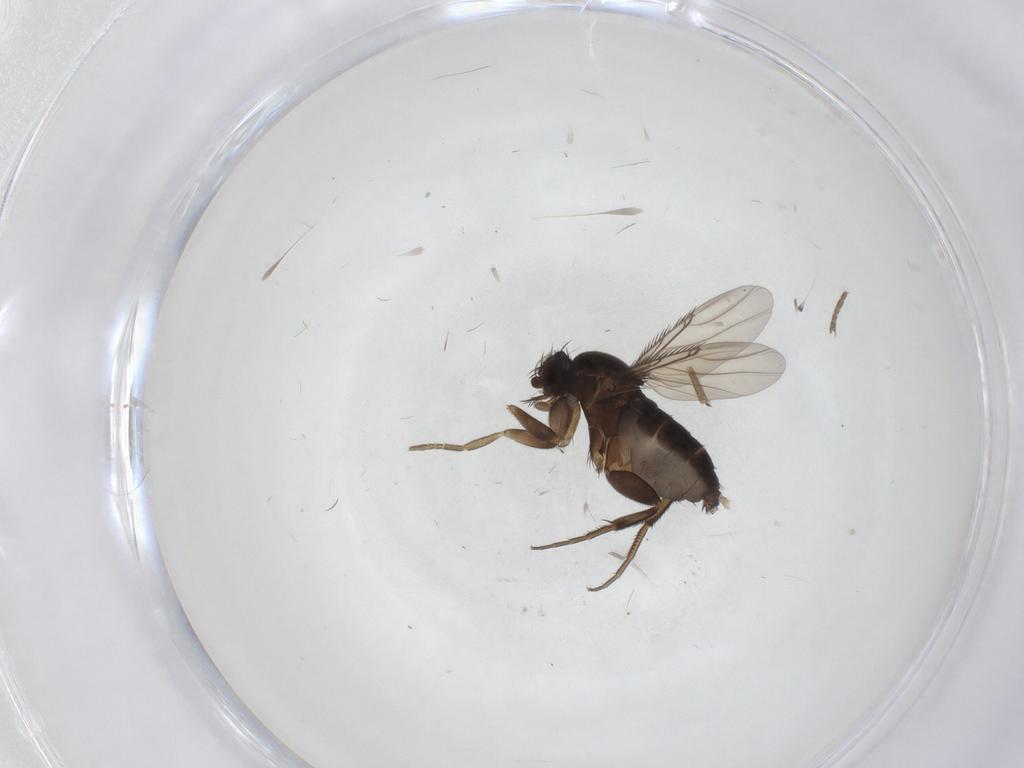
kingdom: Animalia
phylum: Arthropoda
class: Insecta
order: Diptera
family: Phoridae
